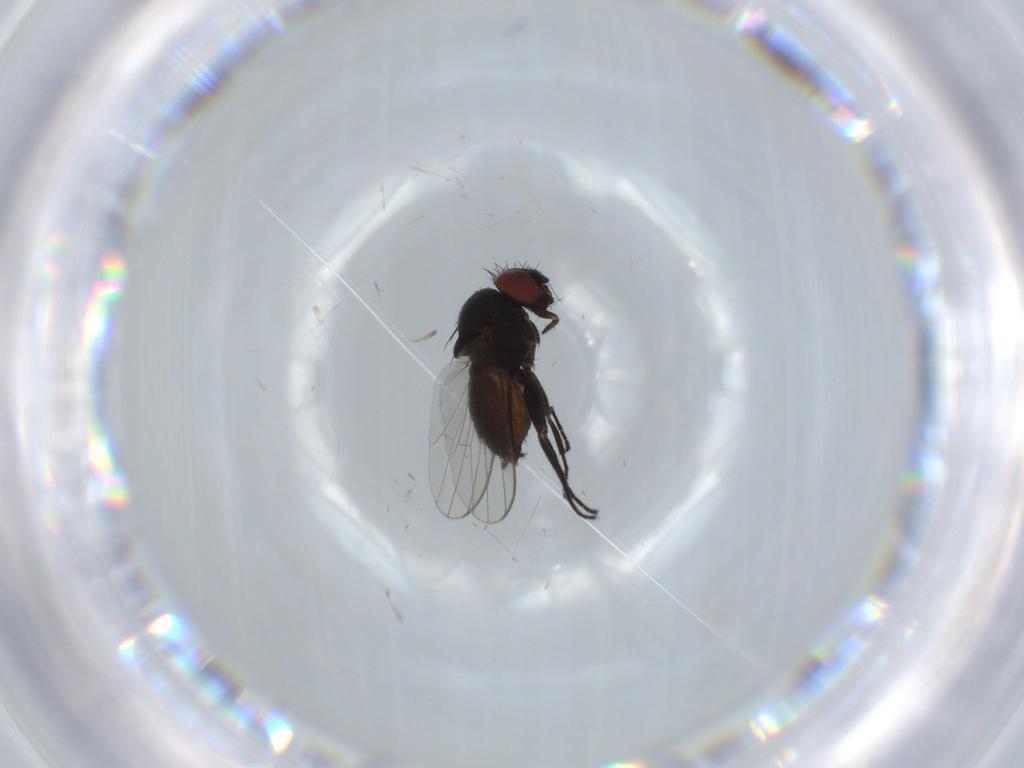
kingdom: Animalia
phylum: Arthropoda
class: Insecta
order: Diptera
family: Milichiidae
